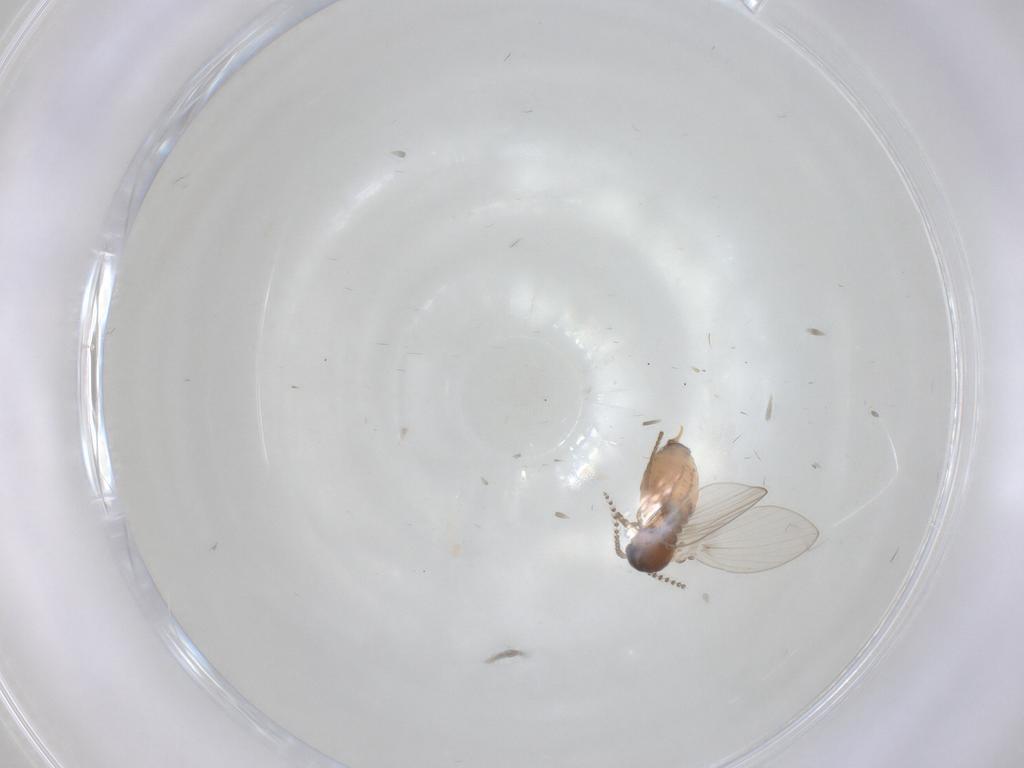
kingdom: Animalia
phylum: Arthropoda
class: Insecta
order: Diptera
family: Psychodidae
